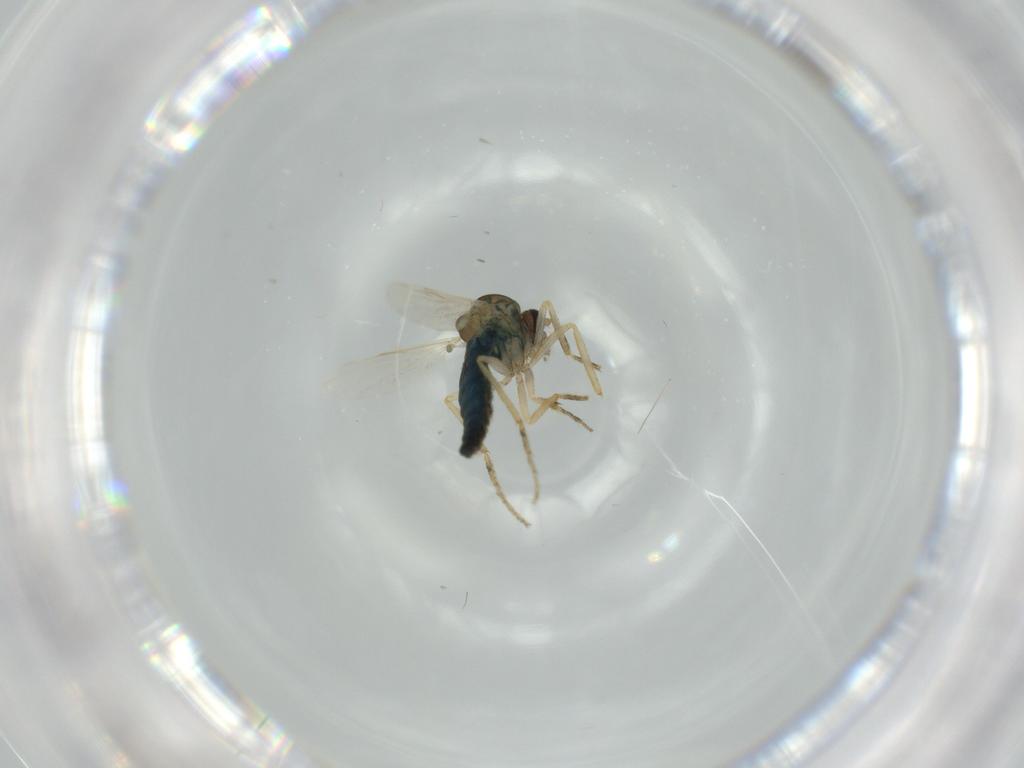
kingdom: Animalia
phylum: Arthropoda
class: Insecta
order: Diptera
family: Ceratopogonidae
